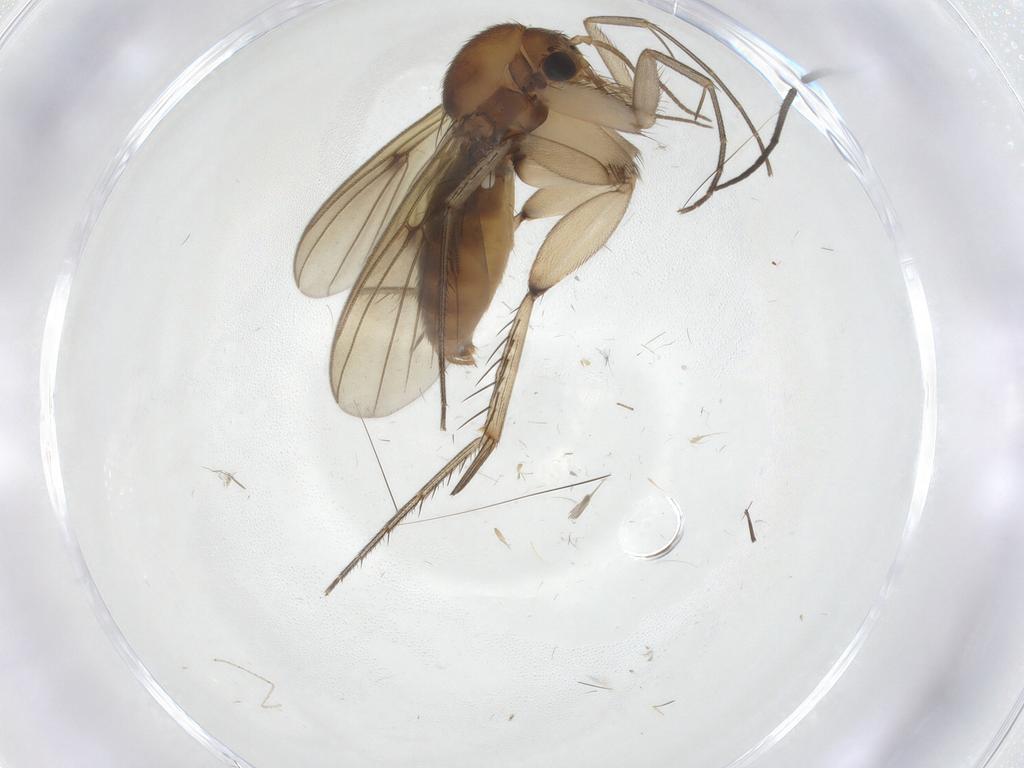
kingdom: Animalia
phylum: Arthropoda
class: Insecta
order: Diptera
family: Mycetophilidae
